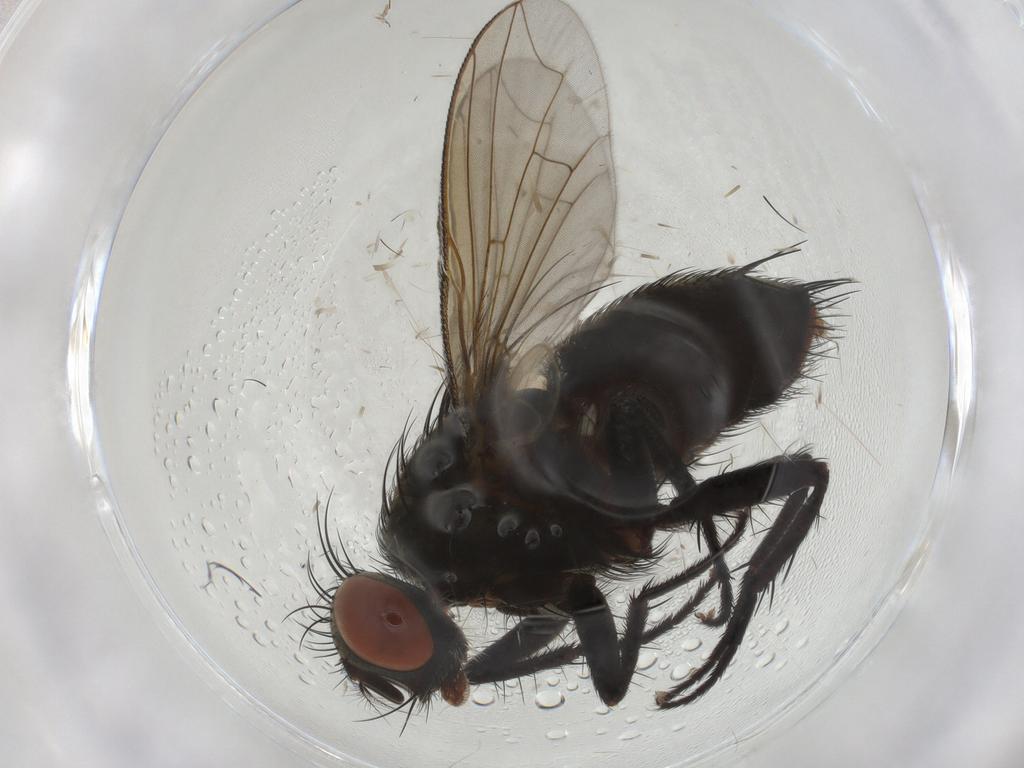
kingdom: Animalia
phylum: Arthropoda
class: Insecta
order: Diptera
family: Sarcophagidae
